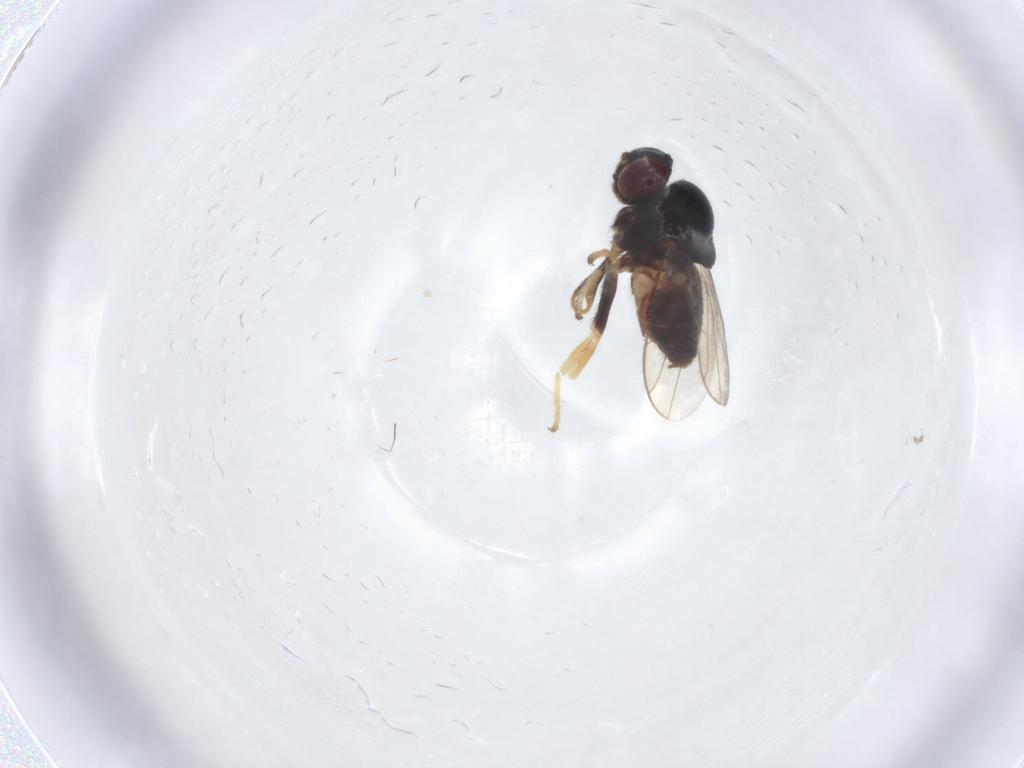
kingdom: Animalia
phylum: Arthropoda
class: Insecta
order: Diptera
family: Chloropidae
